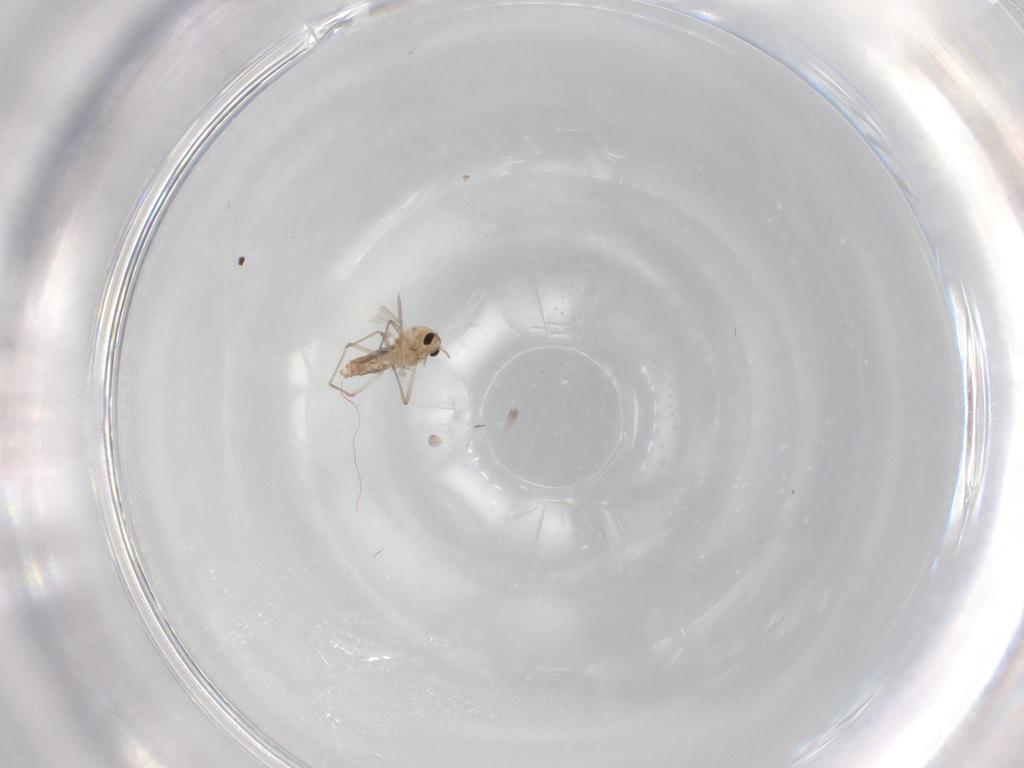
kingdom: Animalia
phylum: Arthropoda
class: Insecta
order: Diptera
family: Chironomidae
